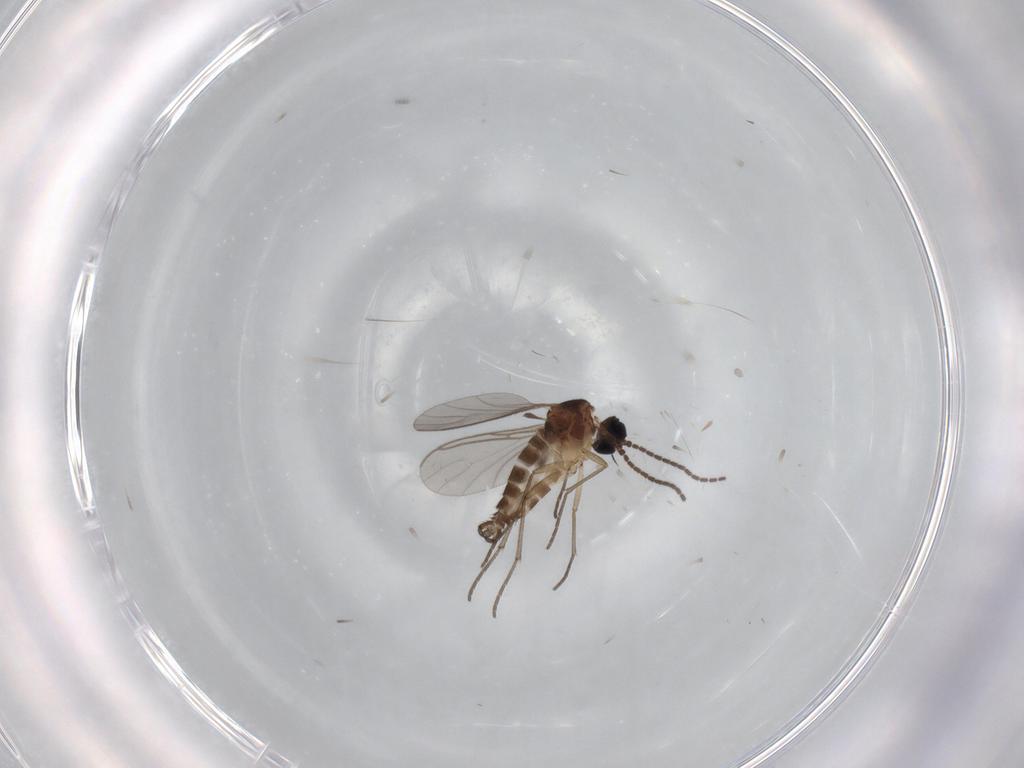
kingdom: Animalia
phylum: Arthropoda
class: Insecta
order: Diptera
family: Sciaridae
